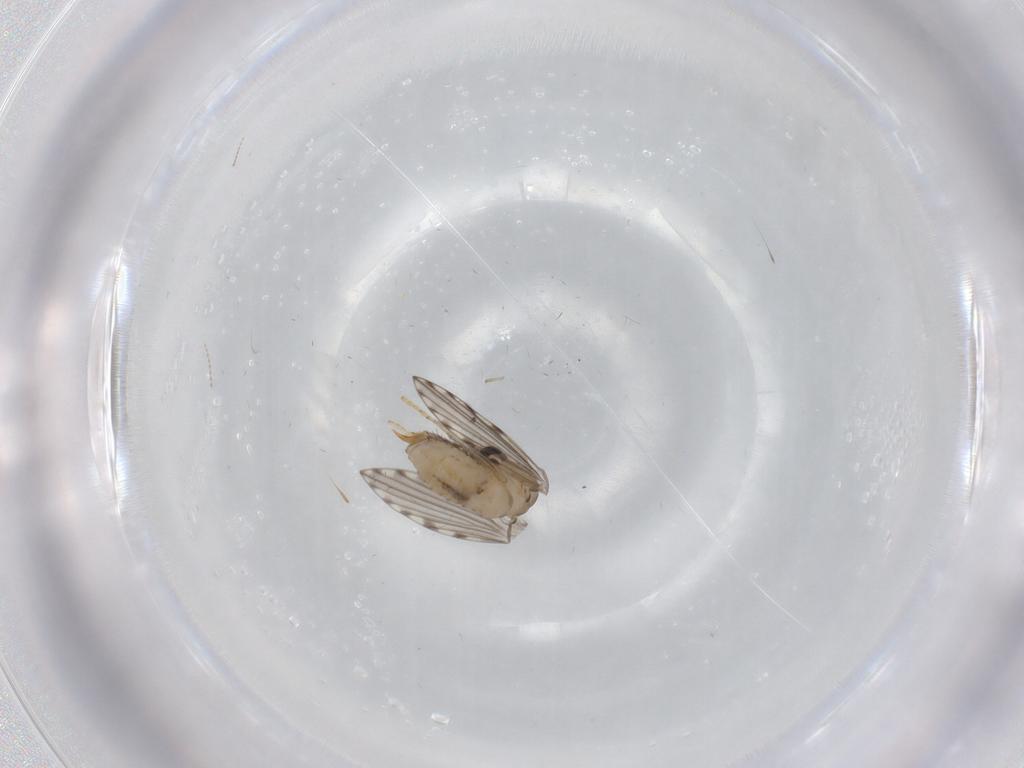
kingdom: Animalia
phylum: Arthropoda
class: Insecta
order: Diptera
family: Psychodidae
